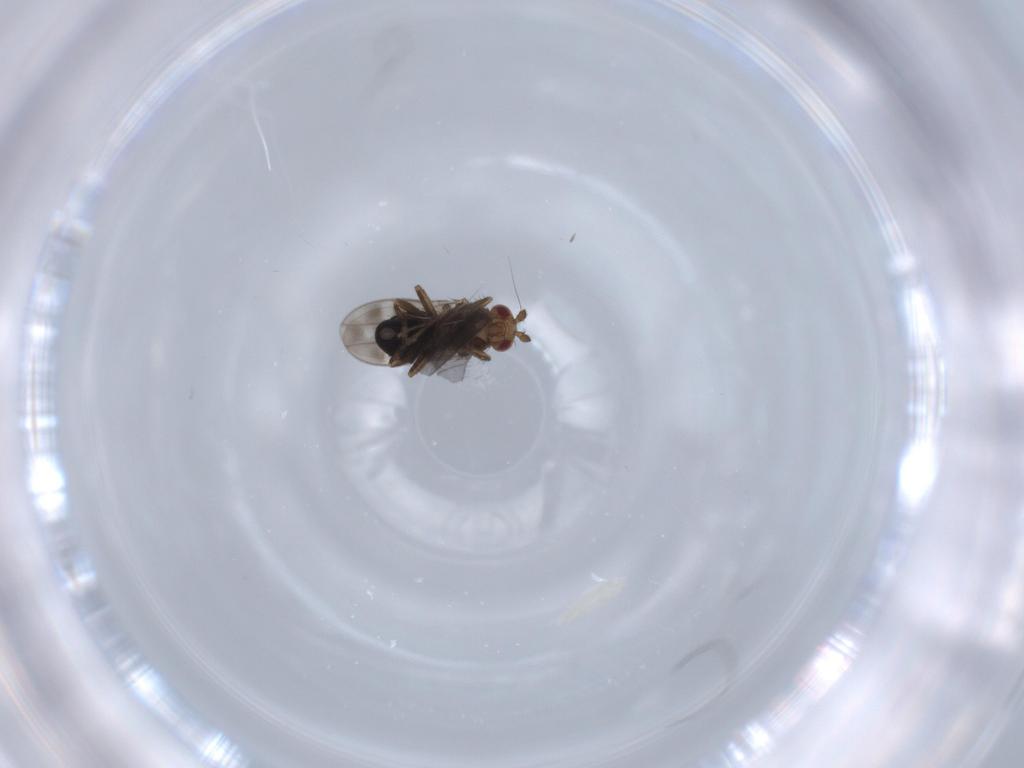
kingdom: Animalia
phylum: Arthropoda
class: Insecta
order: Diptera
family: Sphaeroceridae
